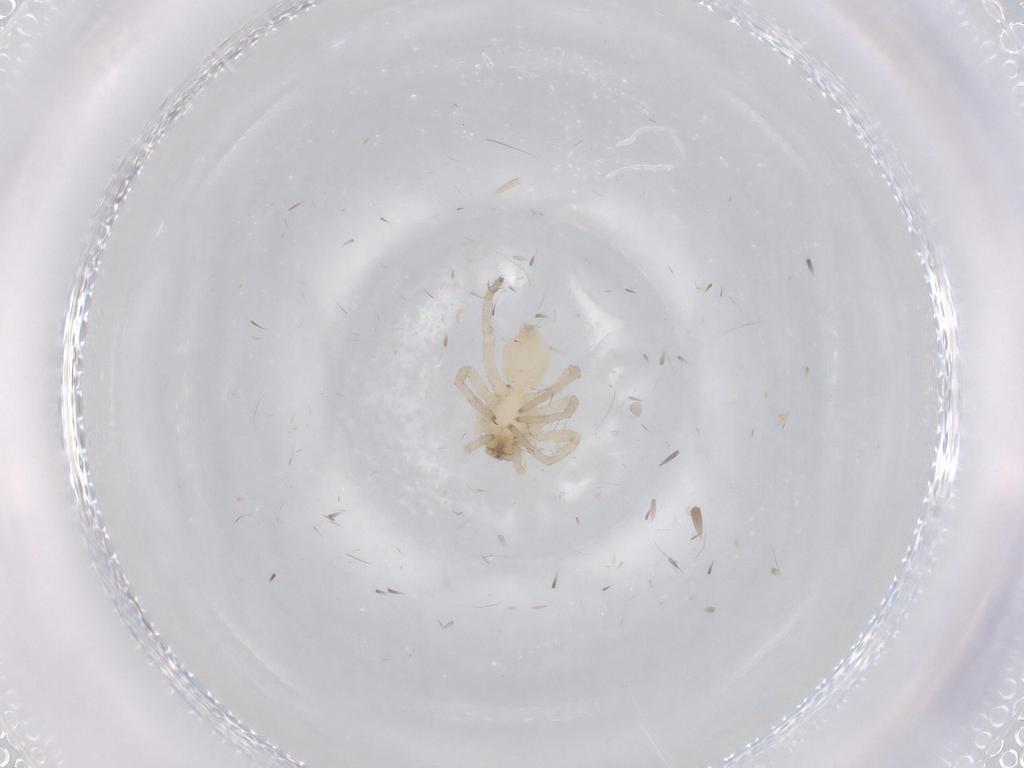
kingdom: Animalia
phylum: Arthropoda
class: Arachnida
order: Araneae
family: Anyphaenidae
